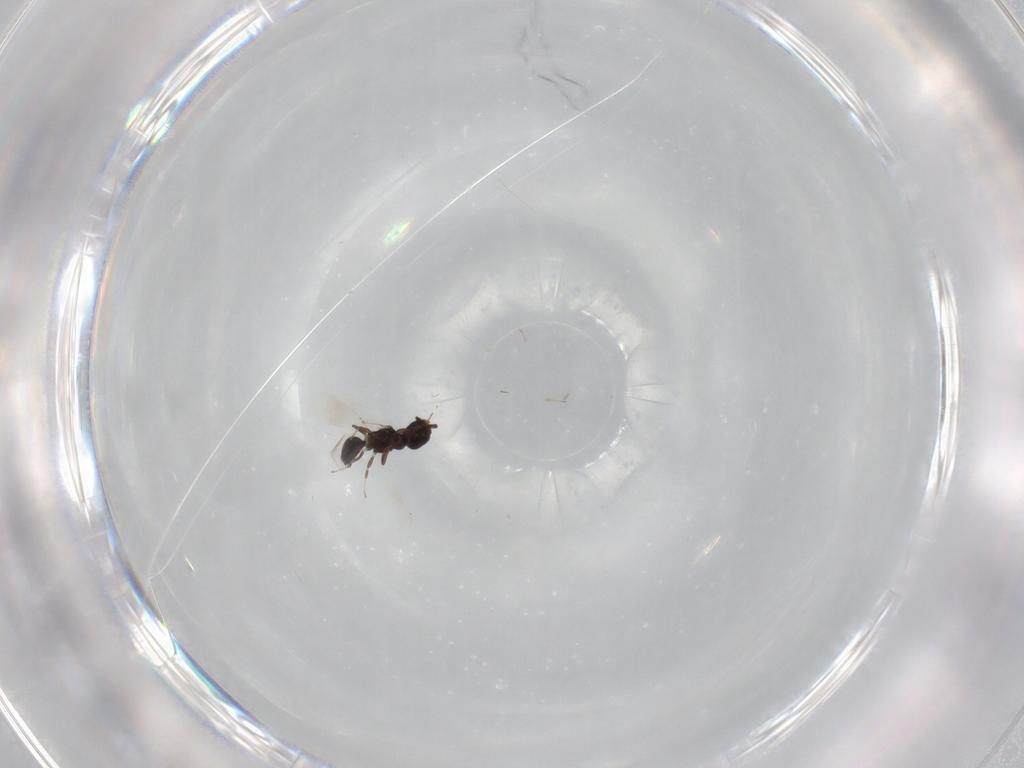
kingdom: Animalia
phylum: Arthropoda
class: Insecta
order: Hymenoptera
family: Bethylidae
